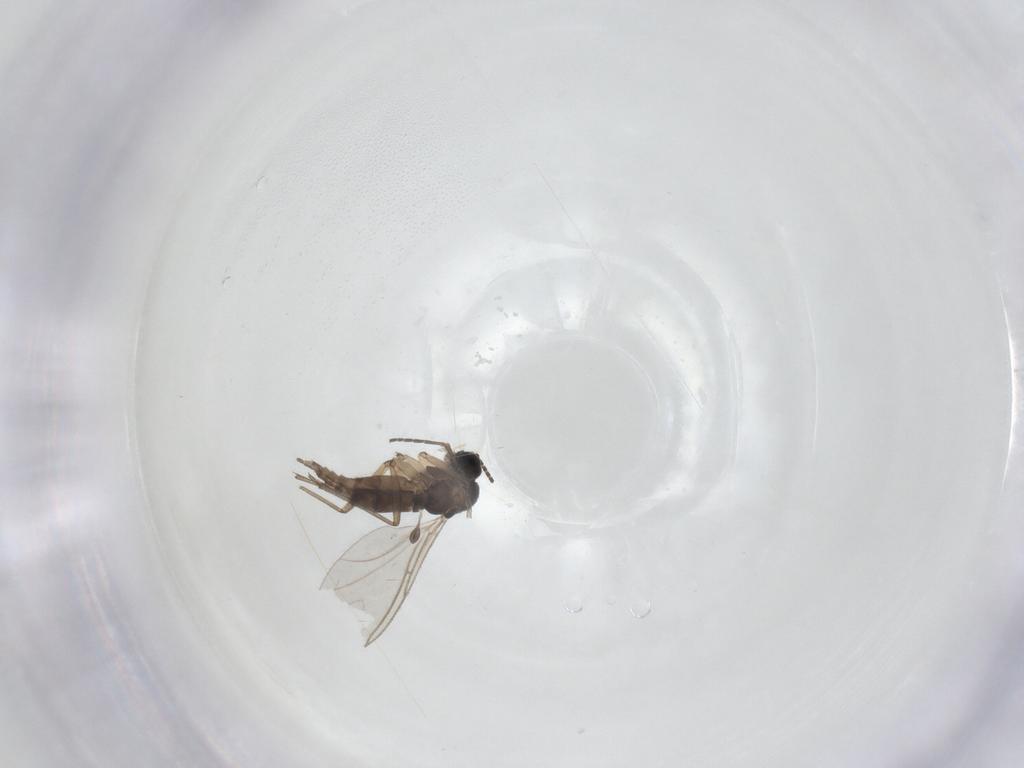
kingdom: Animalia
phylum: Arthropoda
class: Insecta
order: Diptera
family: Sciaridae
